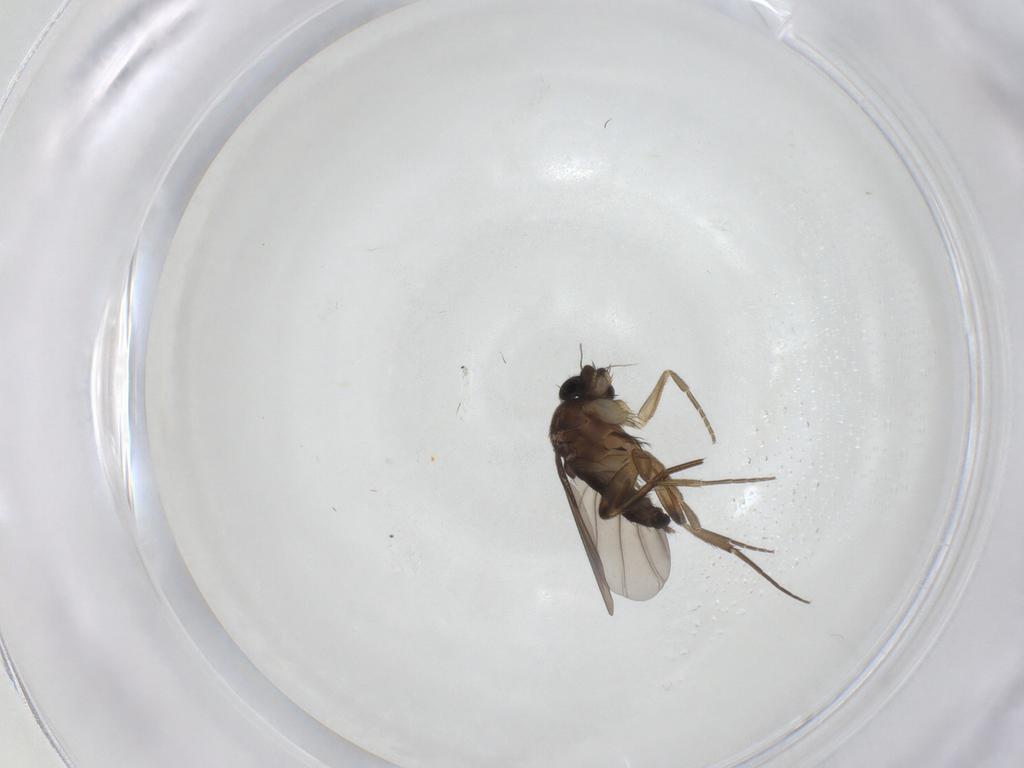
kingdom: Animalia
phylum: Arthropoda
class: Insecta
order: Diptera
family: Phoridae
